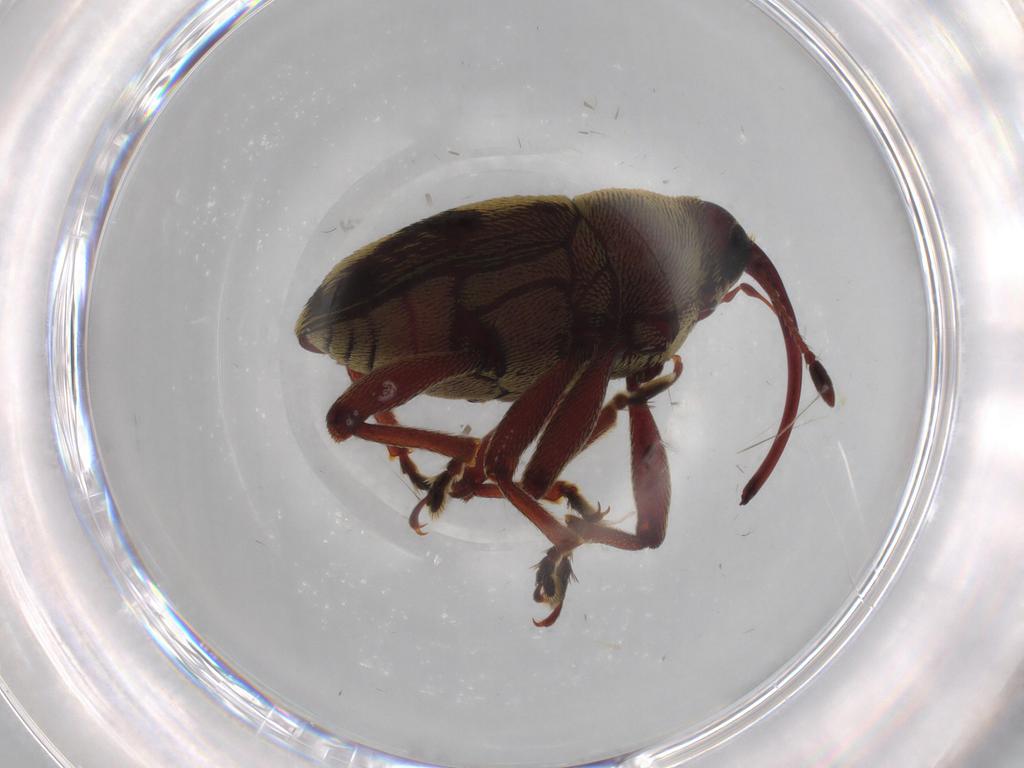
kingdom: Animalia
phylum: Arthropoda
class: Insecta
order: Coleoptera
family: Curculionidae
